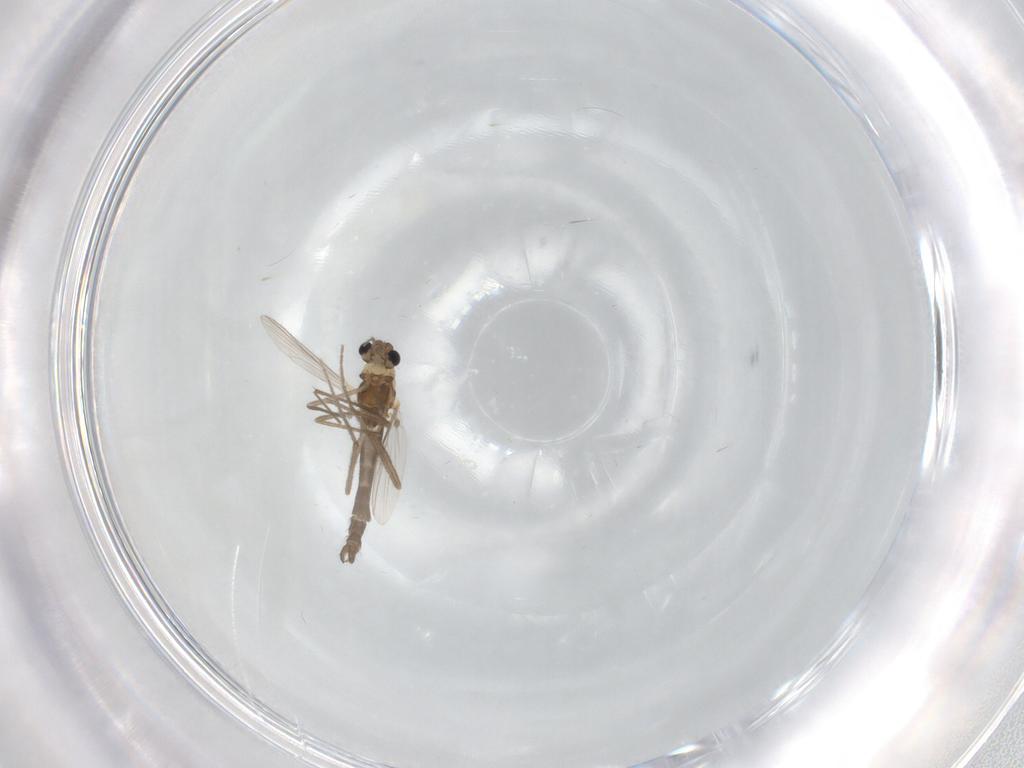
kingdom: Animalia
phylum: Arthropoda
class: Insecta
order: Diptera
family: Chironomidae
